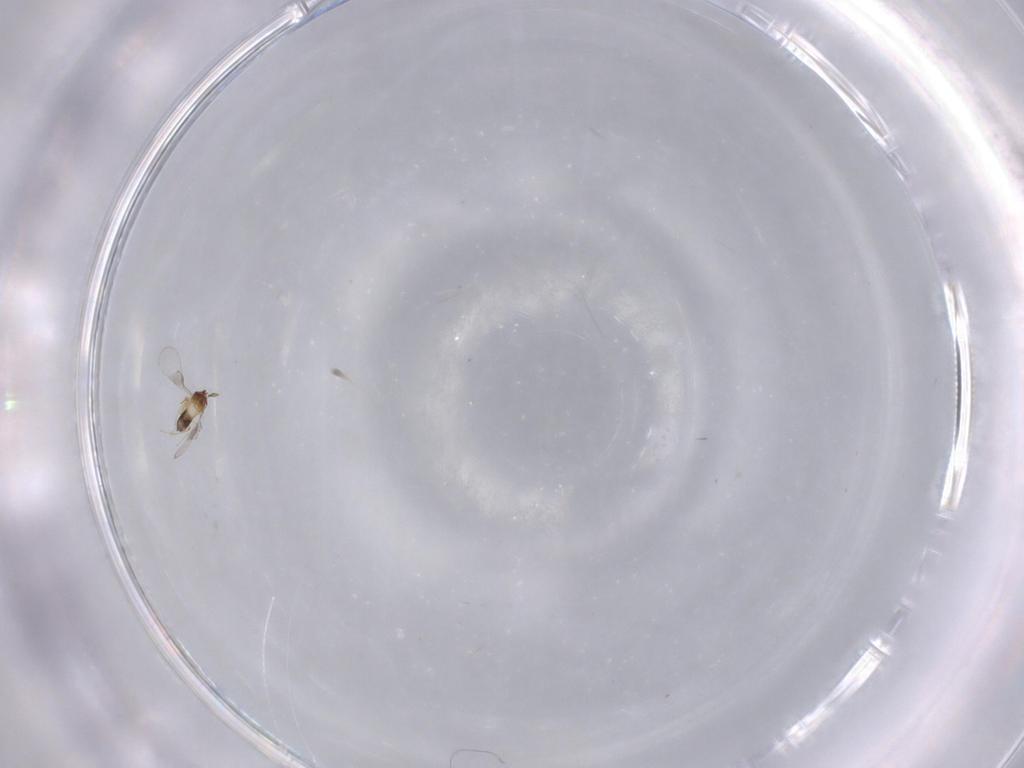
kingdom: Animalia
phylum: Arthropoda
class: Insecta
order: Hymenoptera
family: Trichogrammatidae
